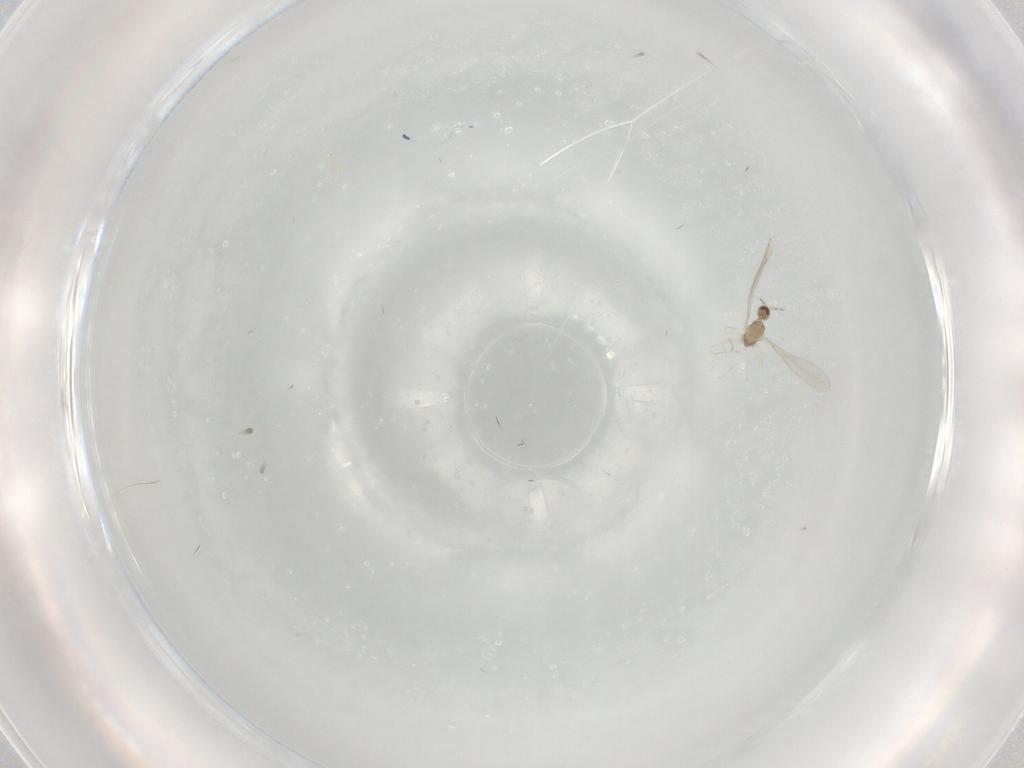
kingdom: Animalia
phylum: Arthropoda
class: Insecta
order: Diptera
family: Cecidomyiidae
